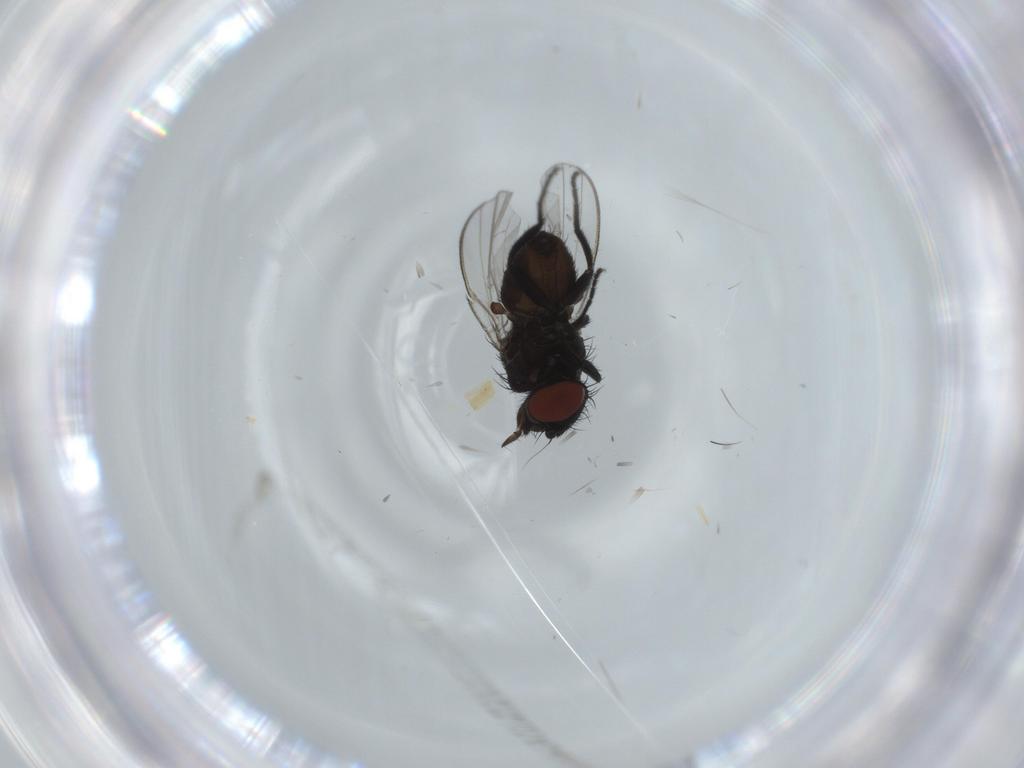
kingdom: Animalia
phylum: Arthropoda
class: Insecta
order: Diptera
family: Milichiidae
